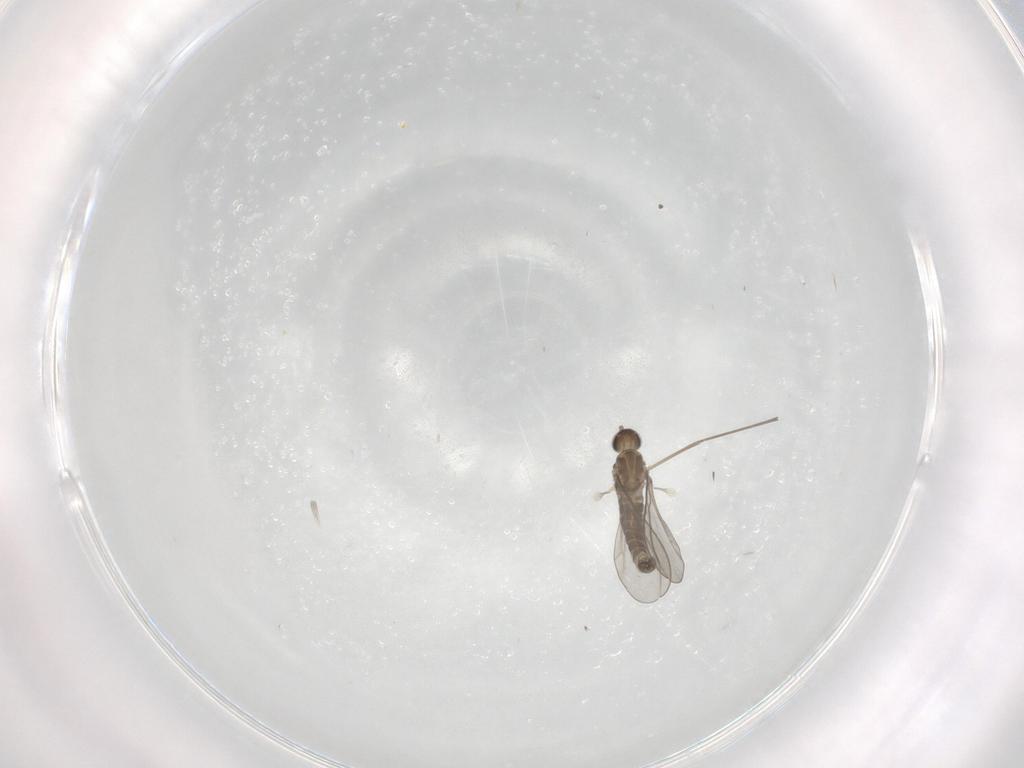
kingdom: Animalia
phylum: Arthropoda
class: Insecta
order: Diptera
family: Cecidomyiidae
